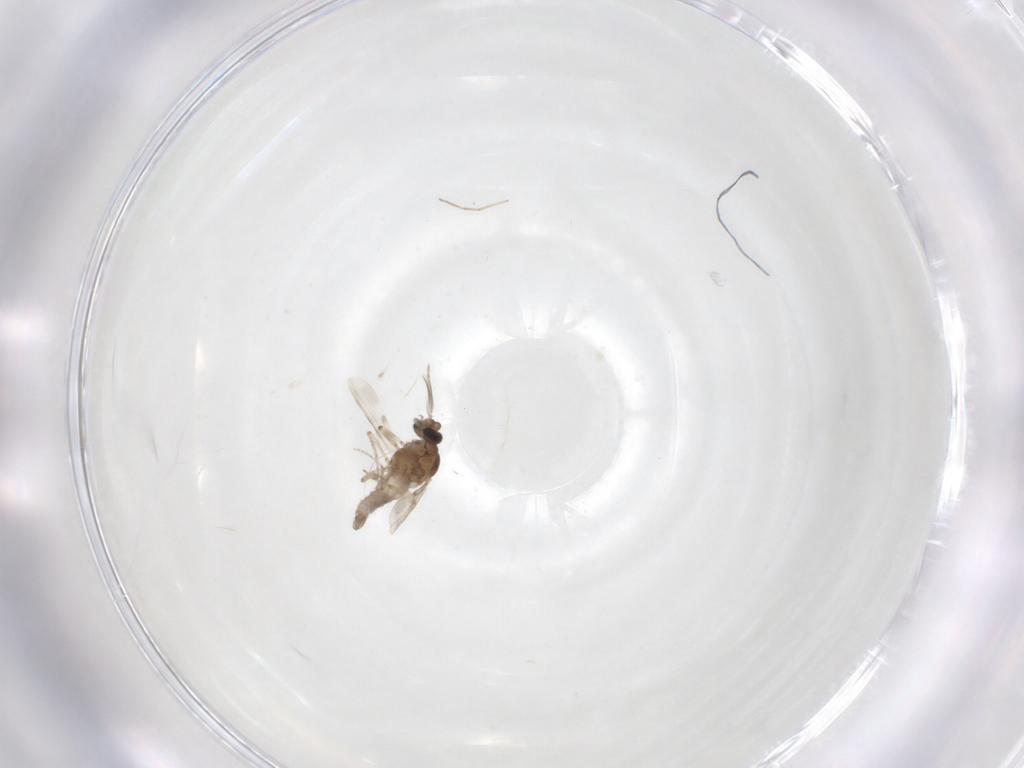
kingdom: Animalia
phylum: Arthropoda
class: Insecta
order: Diptera
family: Ceratopogonidae
